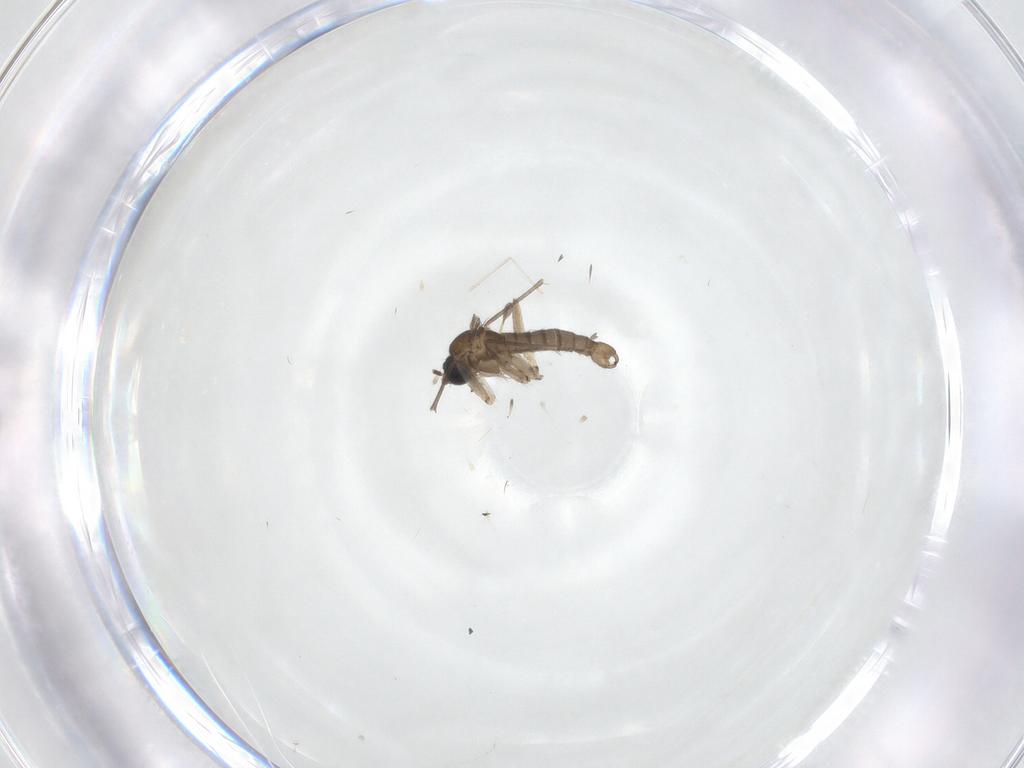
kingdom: Animalia
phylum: Arthropoda
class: Insecta
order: Diptera
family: Sciaridae
